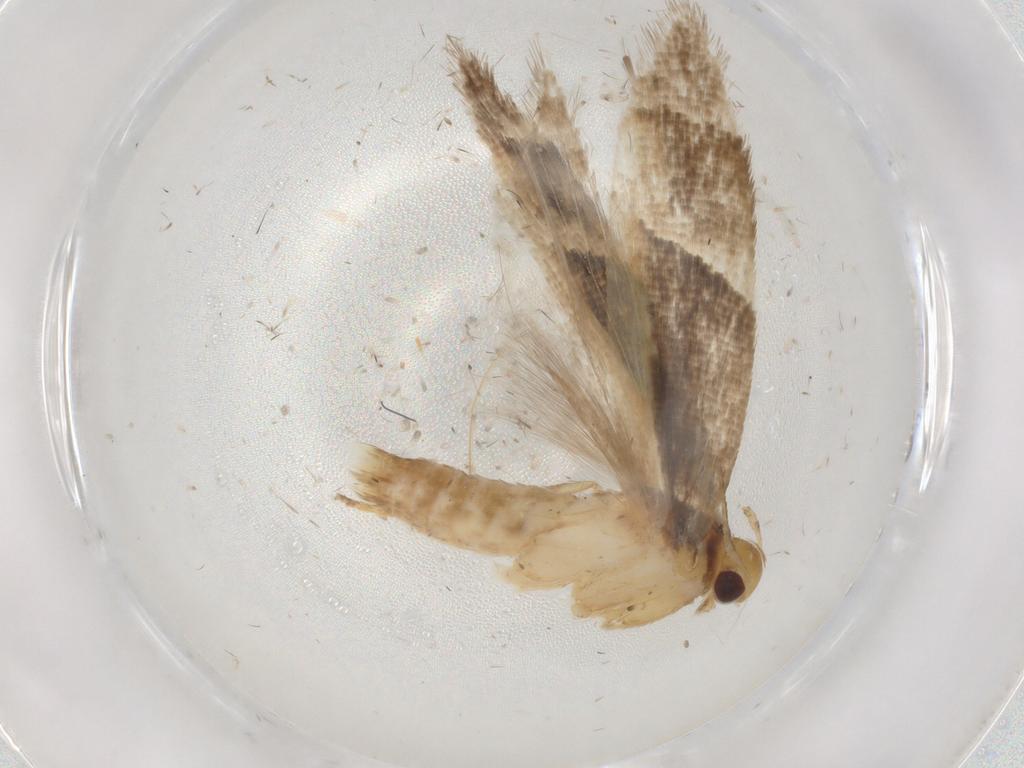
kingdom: Animalia
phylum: Arthropoda
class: Insecta
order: Lepidoptera
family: Gelechiidae
